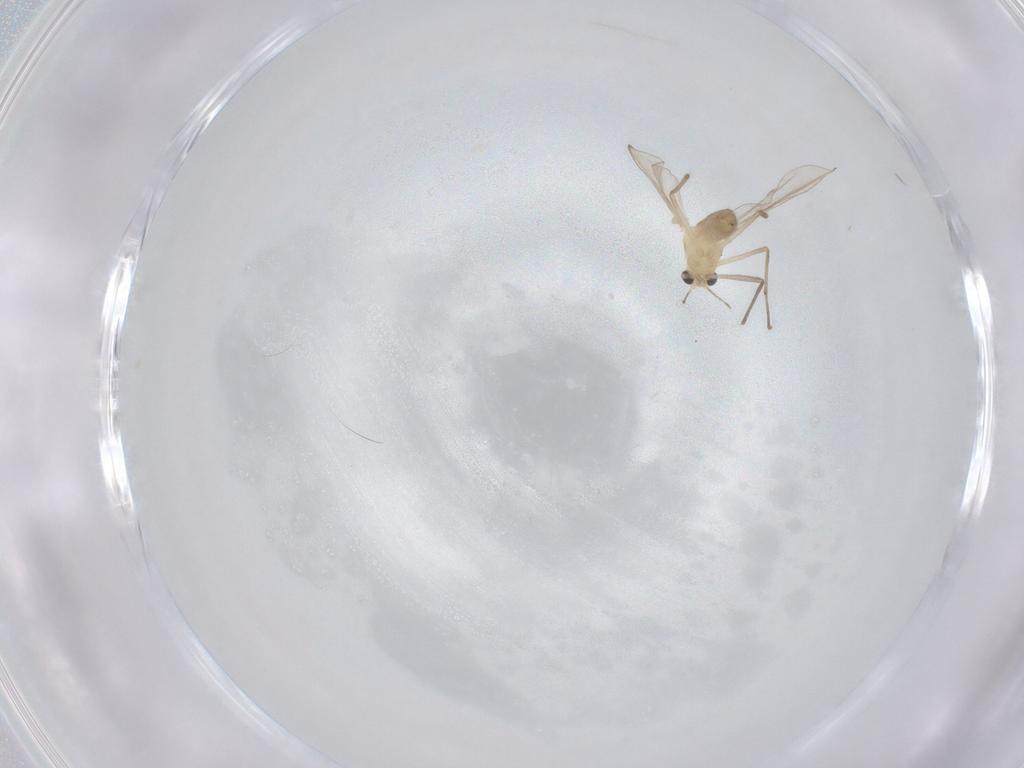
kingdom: Animalia
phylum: Arthropoda
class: Insecta
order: Diptera
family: Chironomidae
